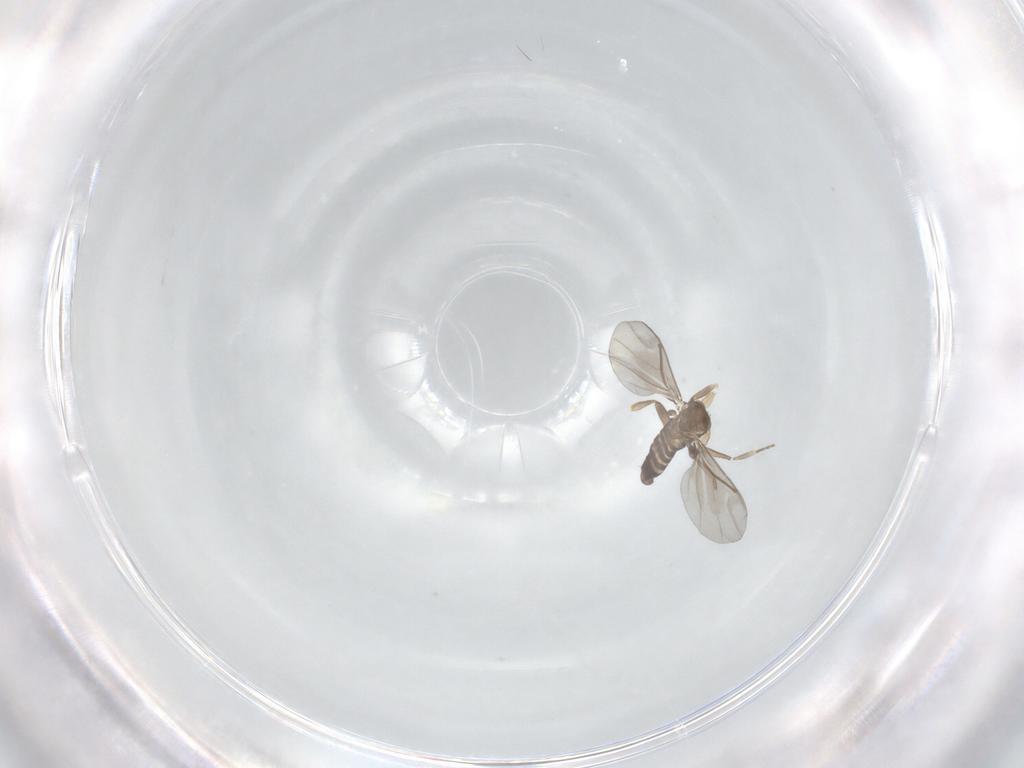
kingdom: Animalia
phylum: Arthropoda
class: Insecta
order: Diptera
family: Cecidomyiidae
